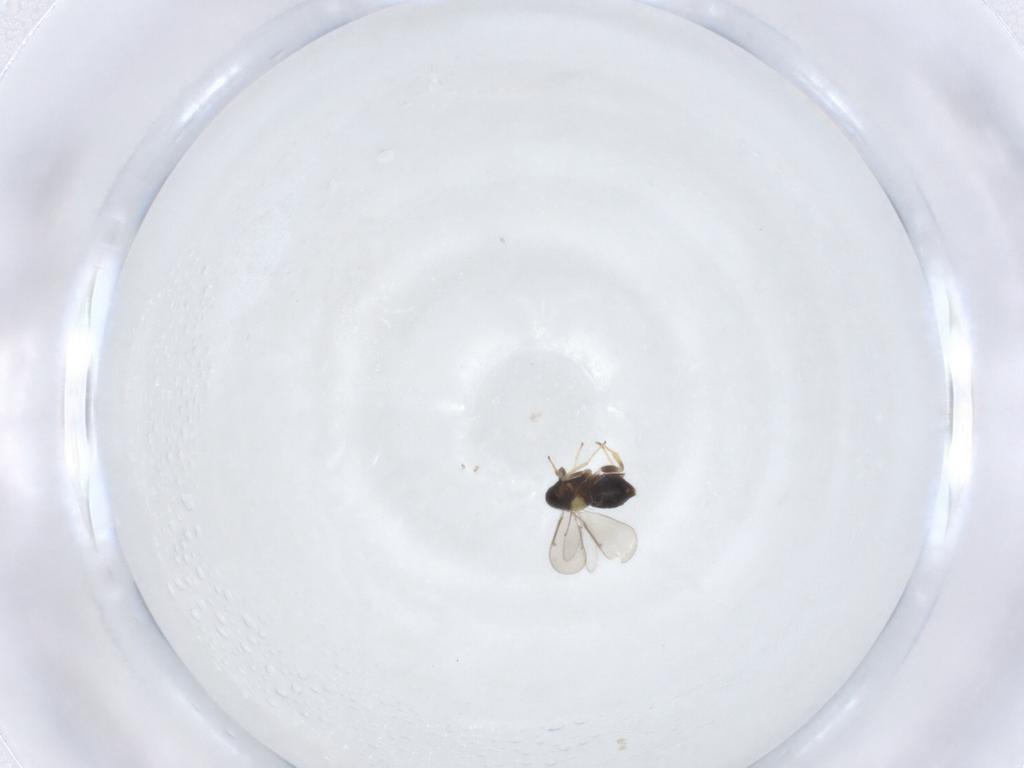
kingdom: Animalia
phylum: Arthropoda
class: Insecta
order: Hymenoptera
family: Aphelinidae
